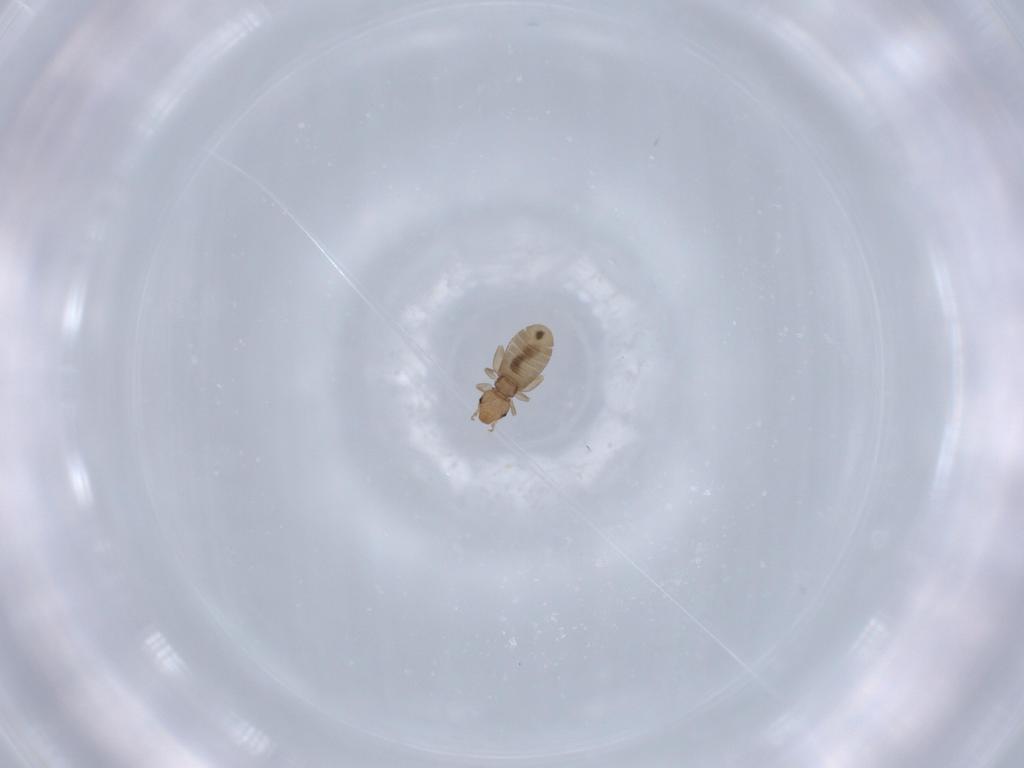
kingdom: Animalia
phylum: Arthropoda
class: Insecta
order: Psocodea
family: Liposcelididae
